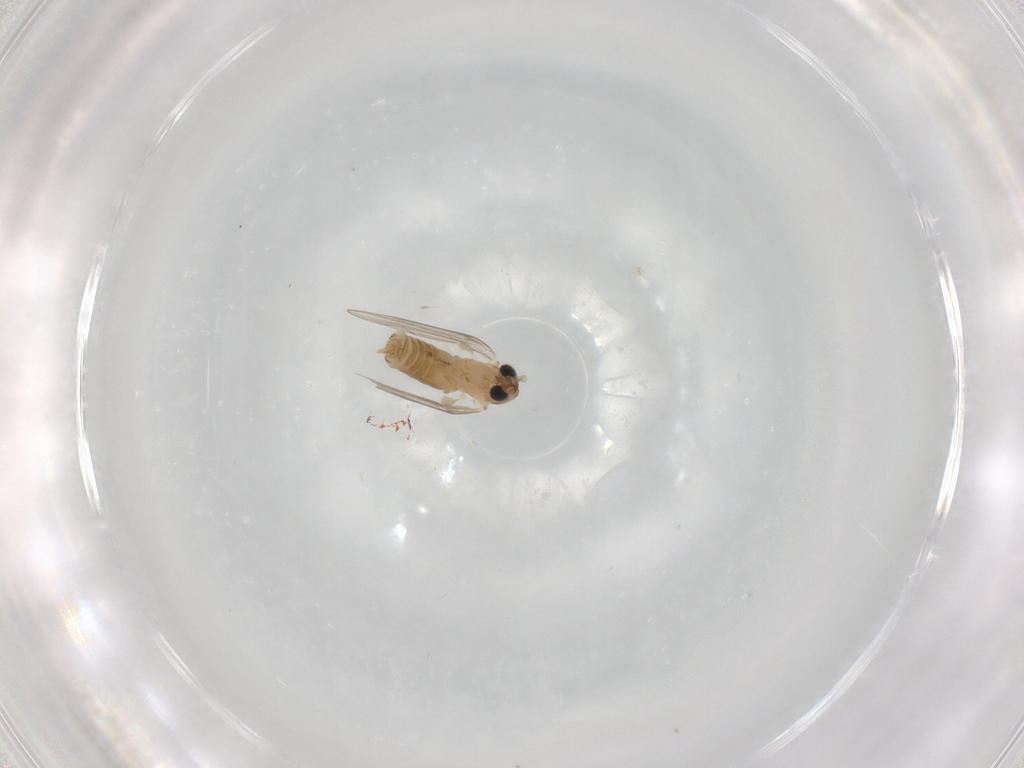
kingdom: Animalia
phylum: Arthropoda
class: Insecta
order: Diptera
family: Psychodidae
